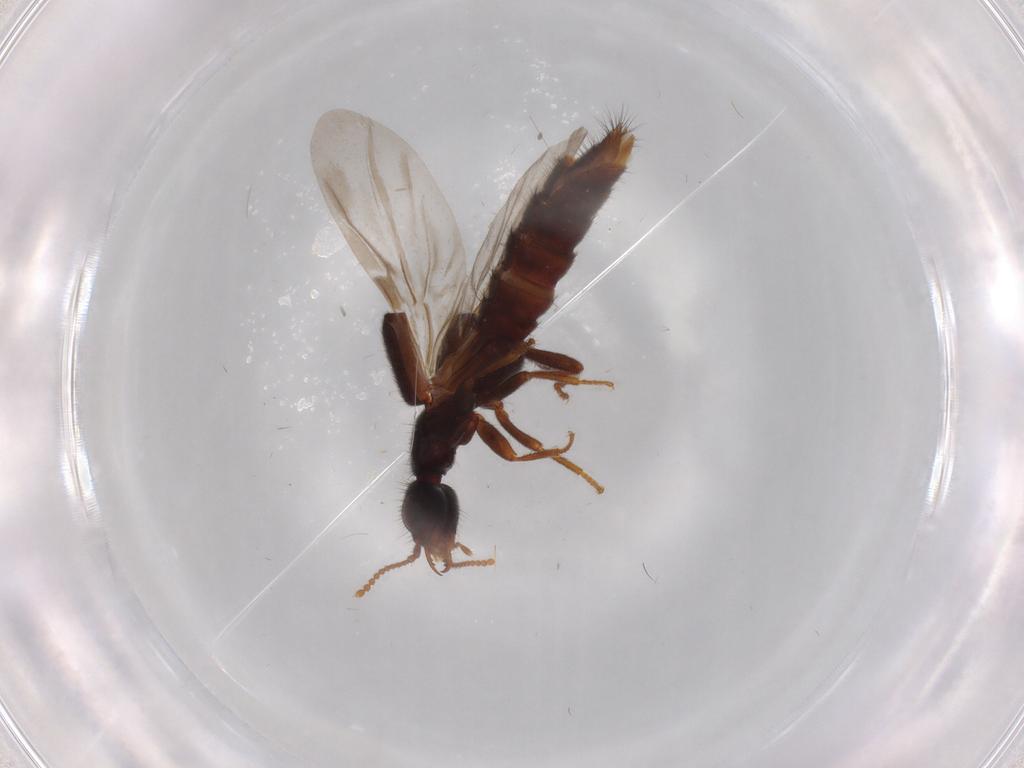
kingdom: Animalia
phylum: Arthropoda
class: Insecta
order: Coleoptera
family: Staphylinidae
